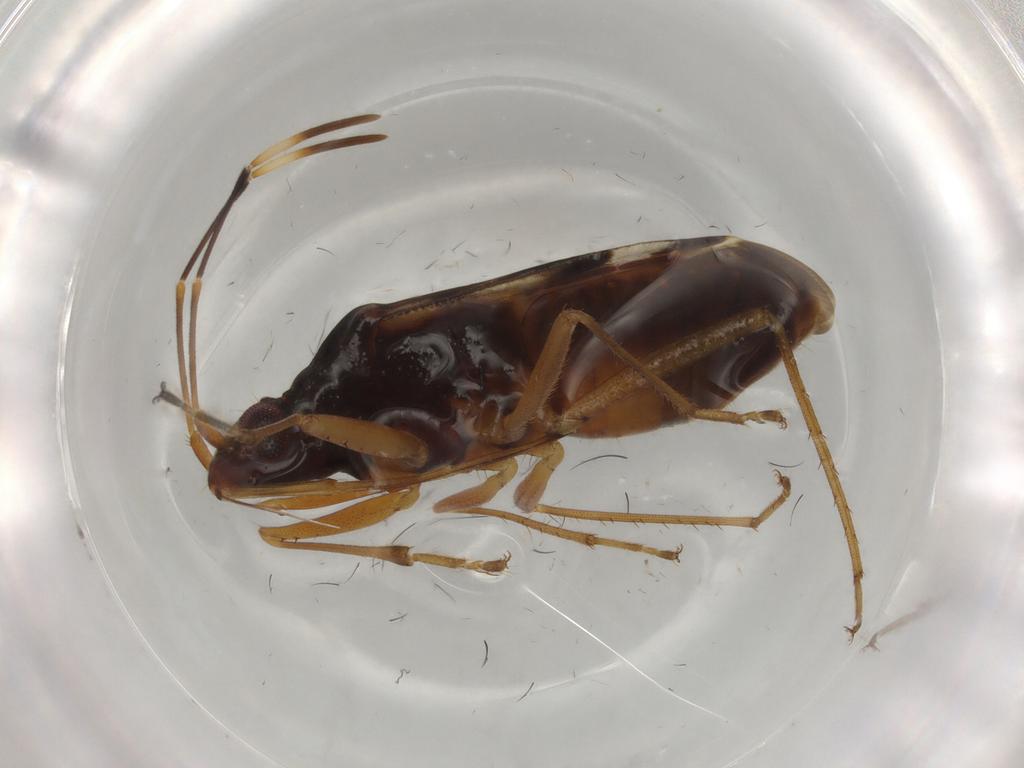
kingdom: Animalia
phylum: Arthropoda
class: Insecta
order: Hemiptera
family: Rhyparochromidae
